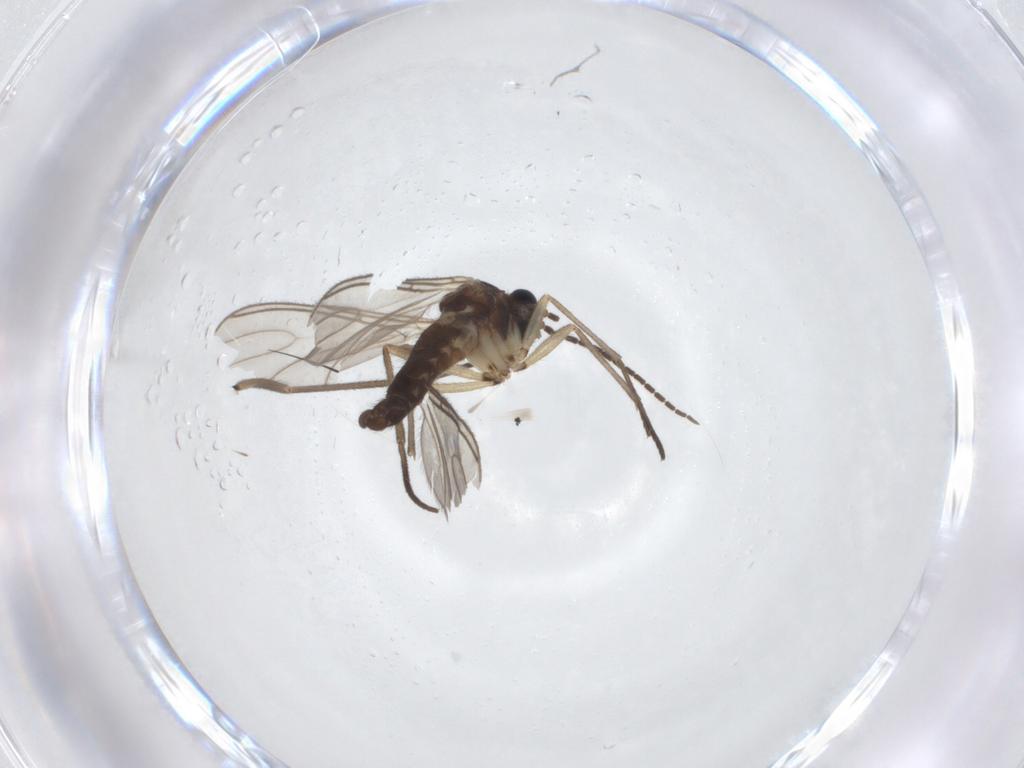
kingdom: Animalia
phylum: Arthropoda
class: Insecta
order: Diptera
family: Sciaridae
